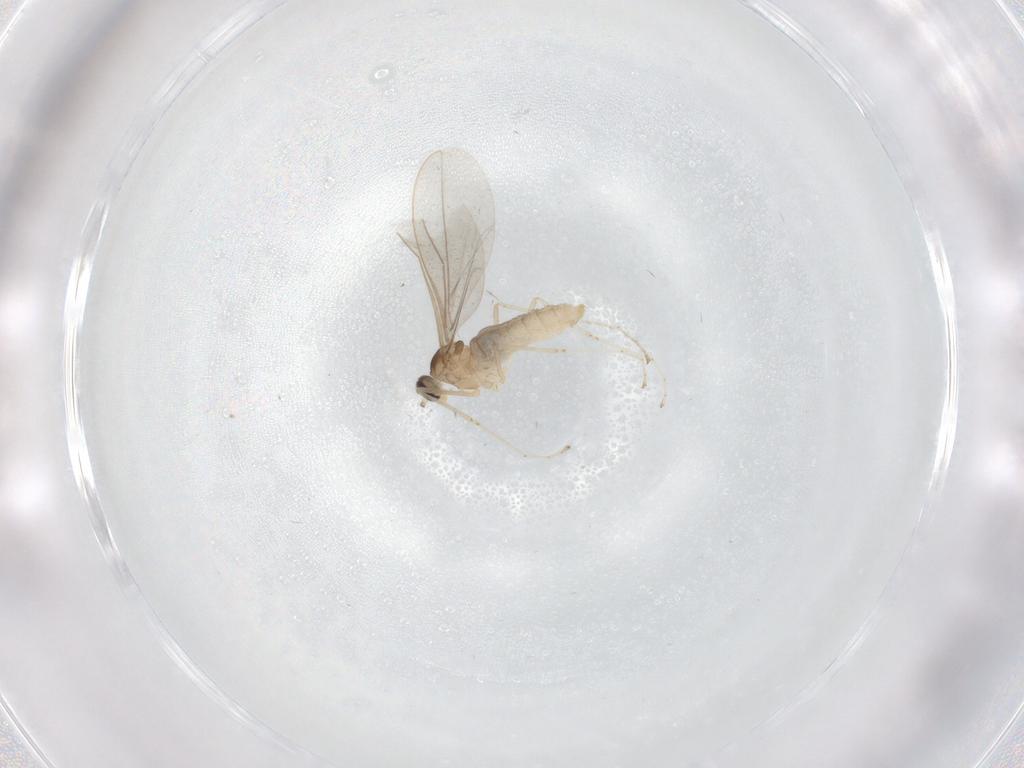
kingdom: Animalia
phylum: Arthropoda
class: Insecta
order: Diptera
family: Cecidomyiidae
